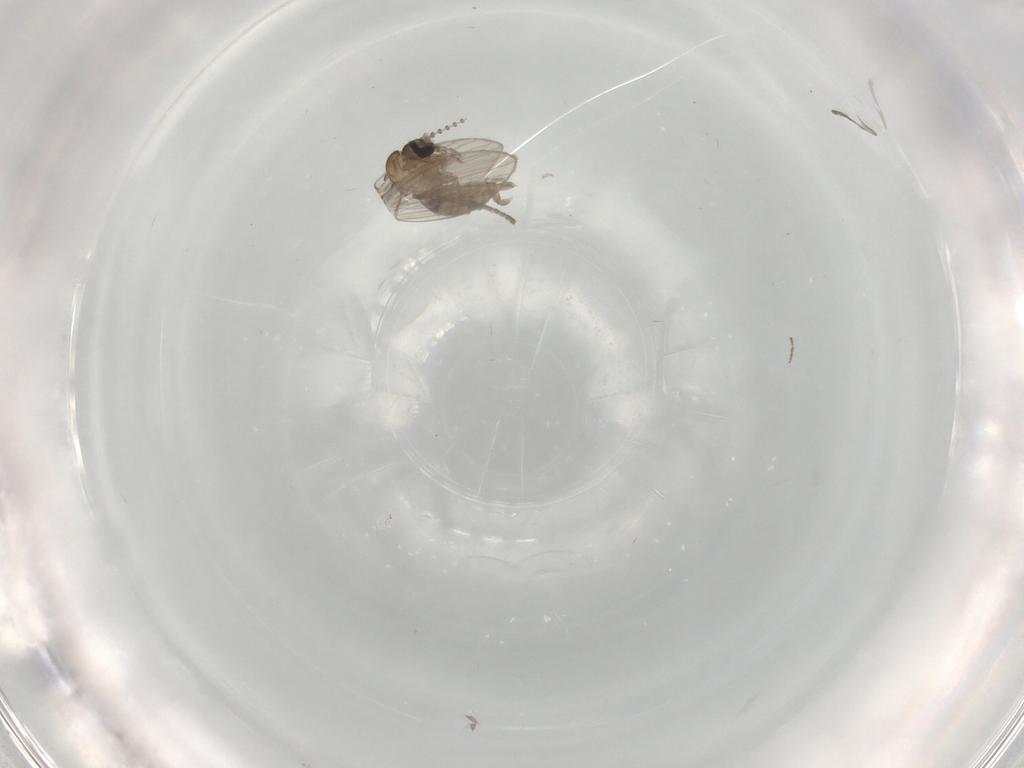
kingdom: Animalia
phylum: Arthropoda
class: Insecta
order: Diptera
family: Psychodidae
